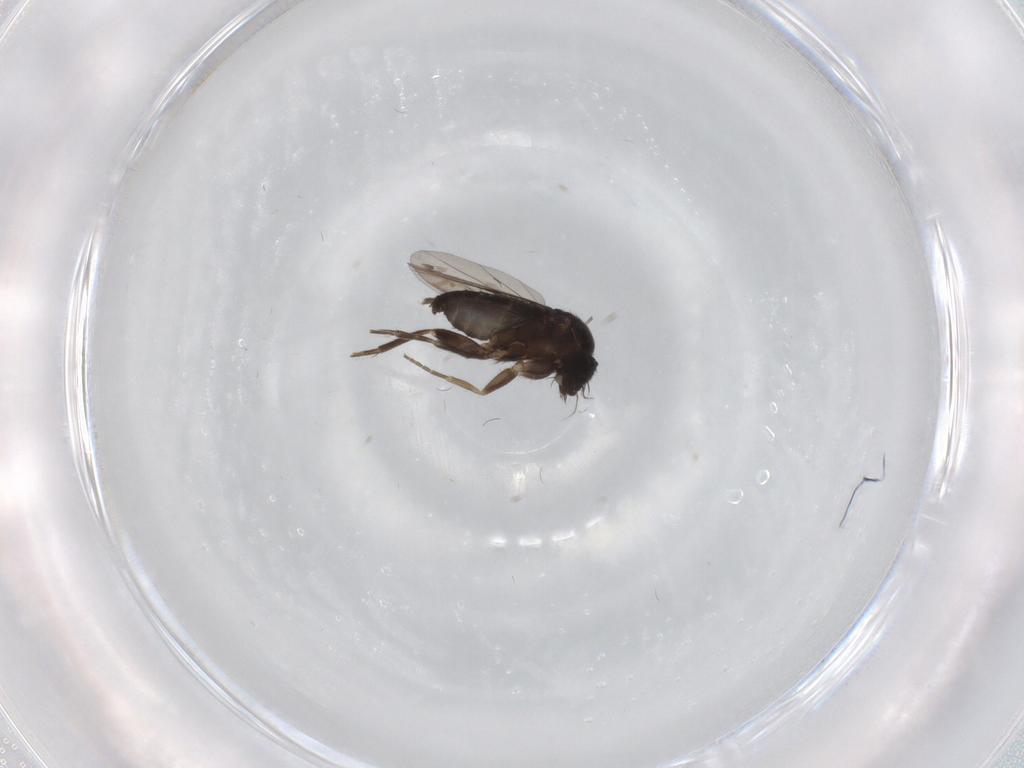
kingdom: Animalia
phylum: Arthropoda
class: Insecta
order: Diptera
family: Phoridae
